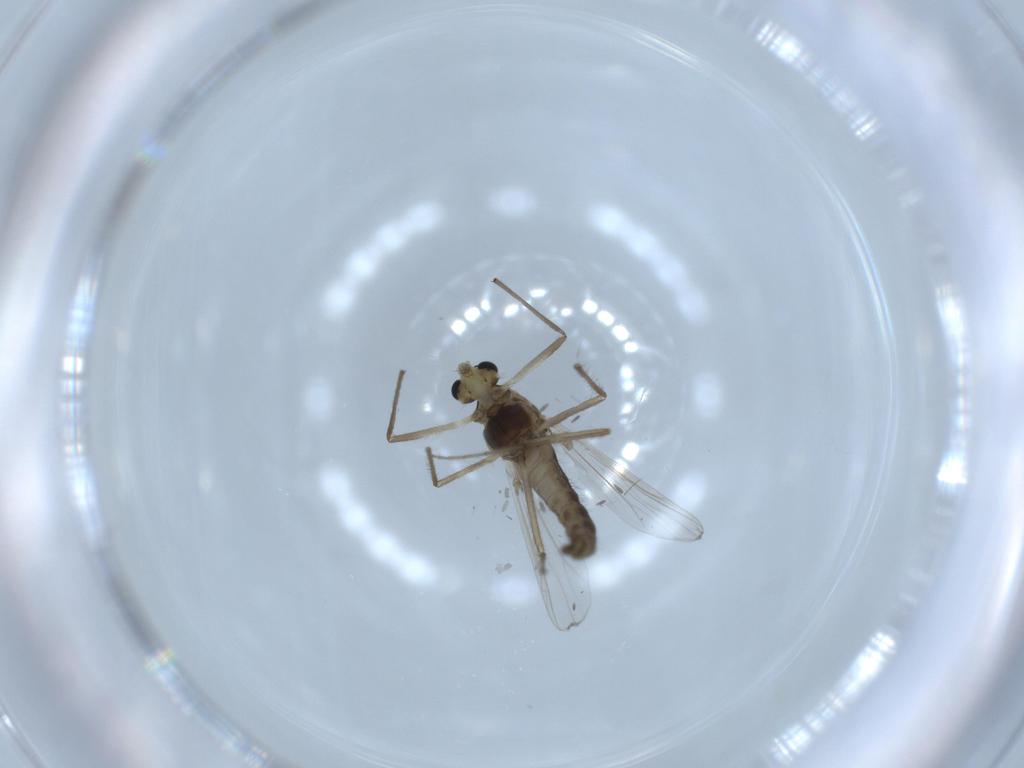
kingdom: Animalia
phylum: Arthropoda
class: Insecta
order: Diptera
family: Chironomidae
